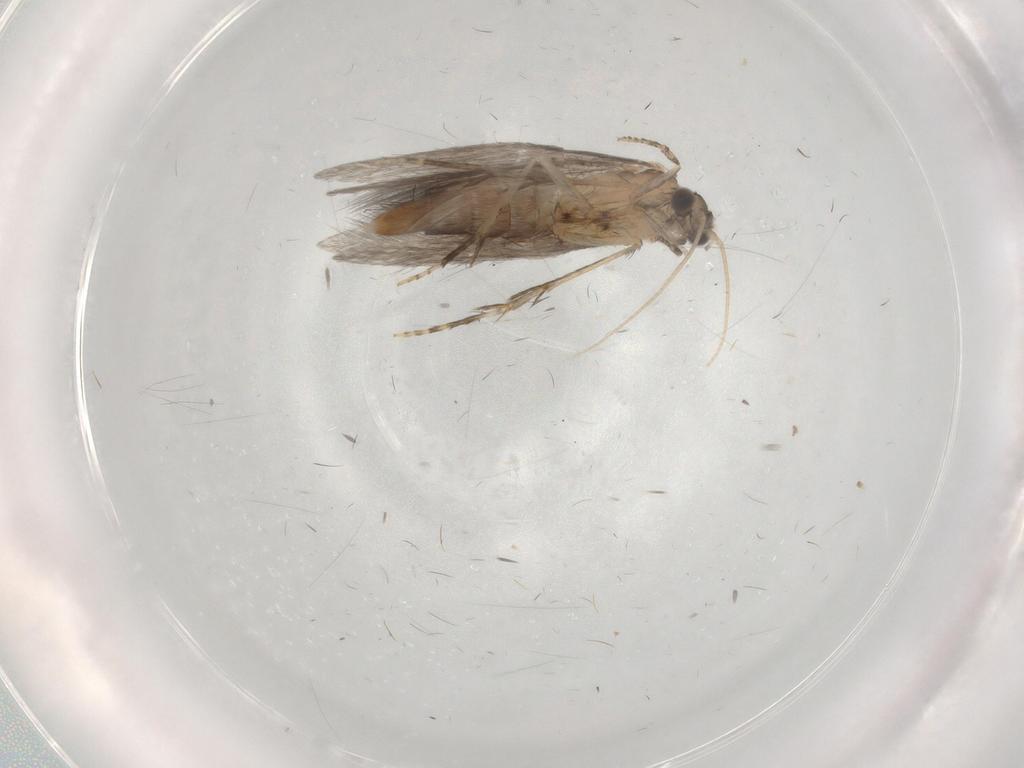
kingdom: Animalia
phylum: Arthropoda
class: Insecta
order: Trichoptera
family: Hydroptilidae
